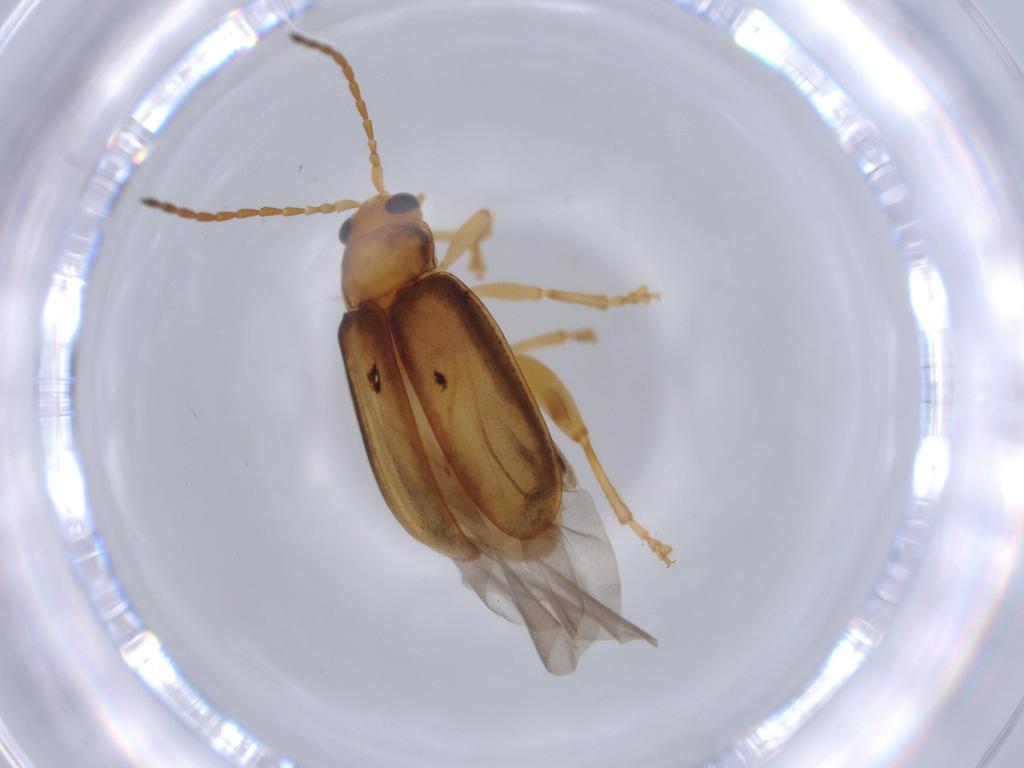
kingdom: Animalia
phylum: Arthropoda
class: Insecta
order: Coleoptera
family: Chrysomelidae
